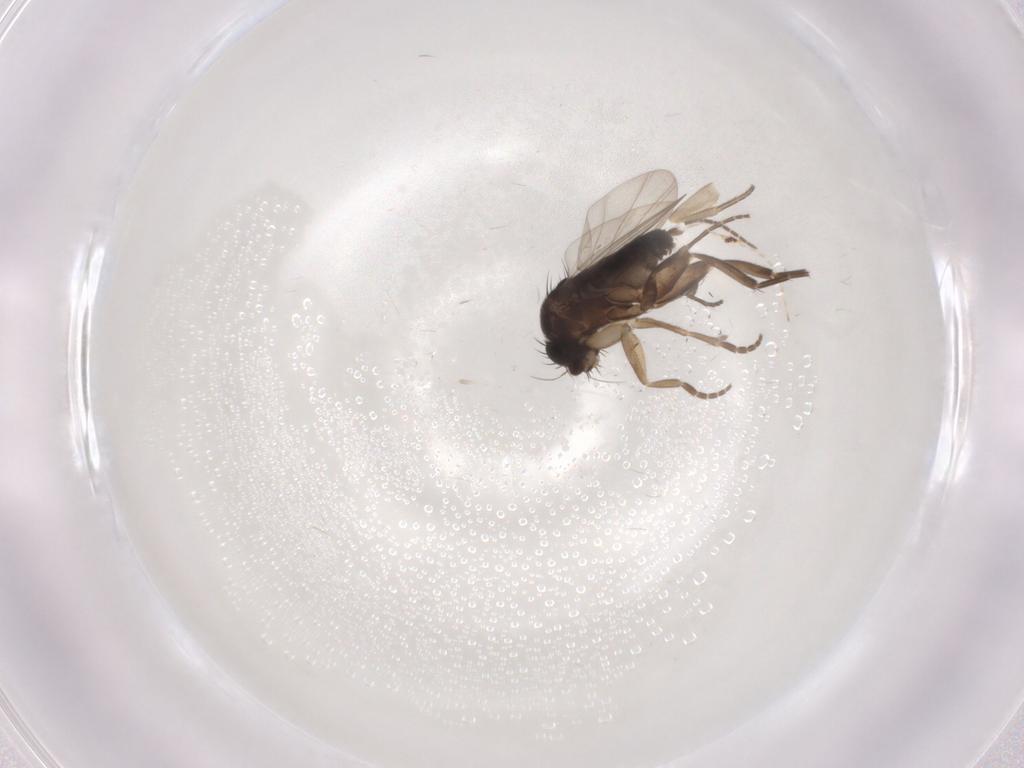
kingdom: Animalia
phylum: Arthropoda
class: Insecta
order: Diptera
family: Phoridae
